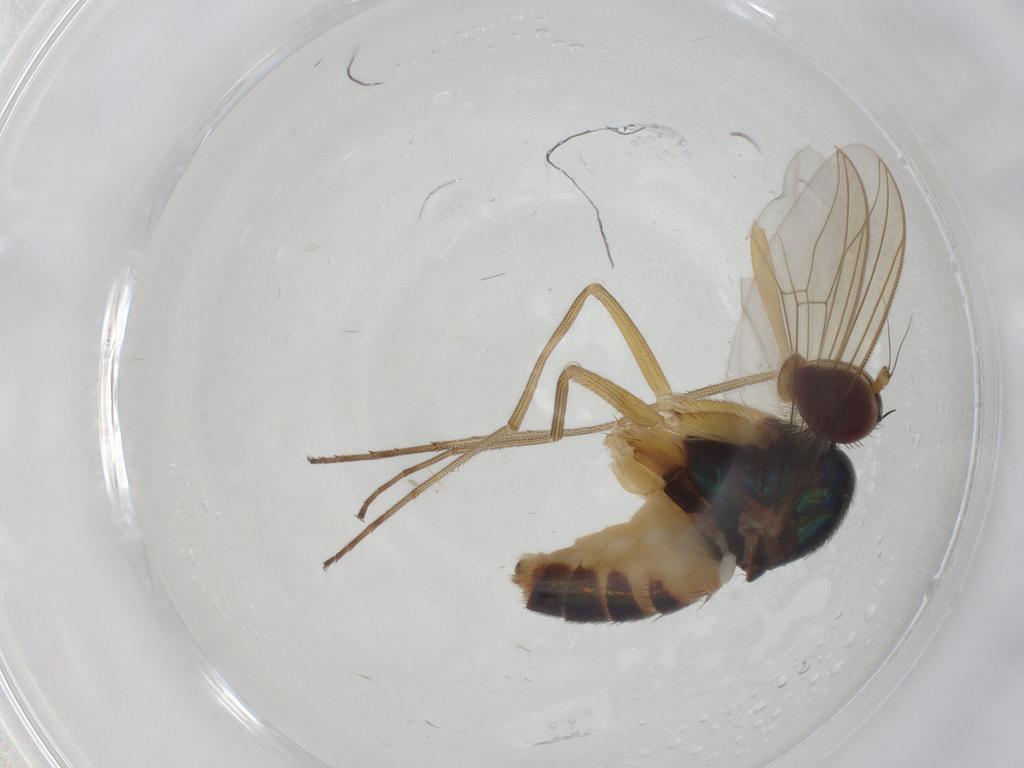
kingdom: Animalia
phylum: Arthropoda
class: Insecta
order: Diptera
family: Dolichopodidae
